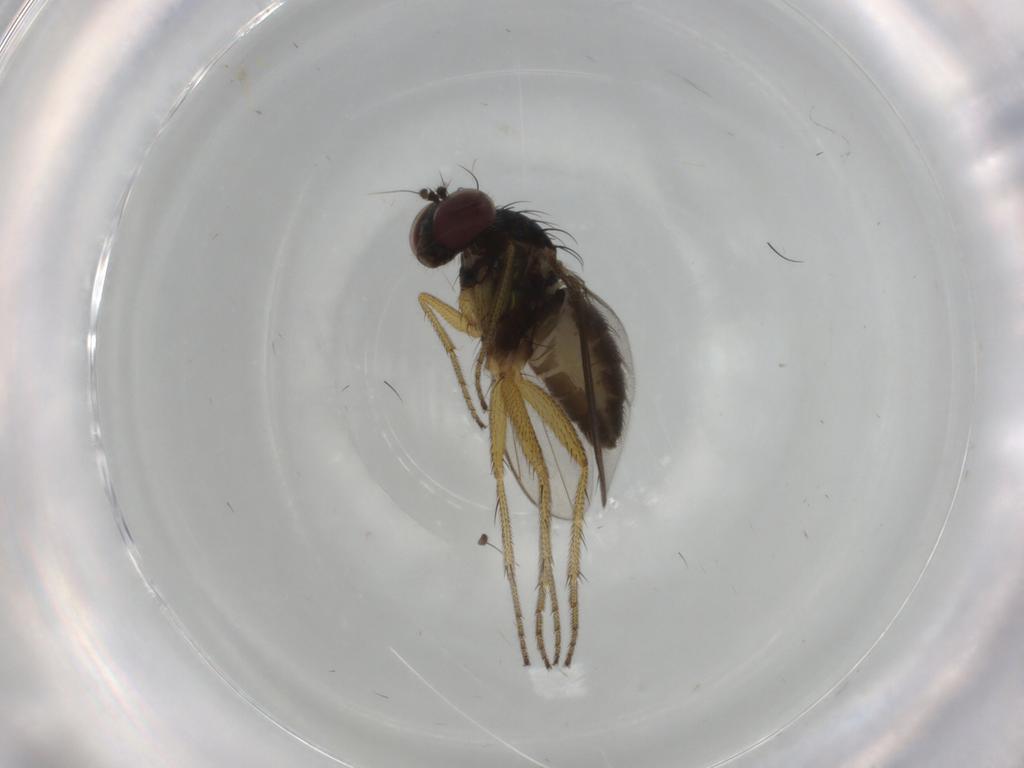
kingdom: Animalia
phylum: Arthropoda
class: Insecta
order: Diptera
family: Dolichopodidae
